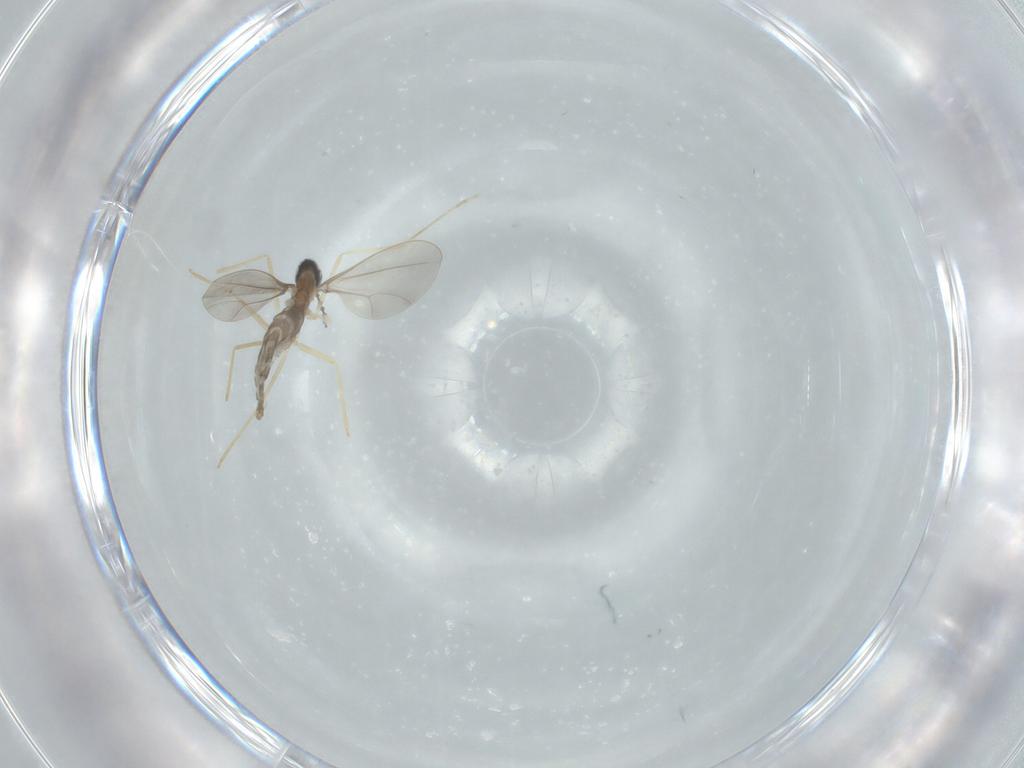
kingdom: Animalia
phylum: Arthropoda
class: Insecta
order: Diptera
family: Cecidomyiidae
